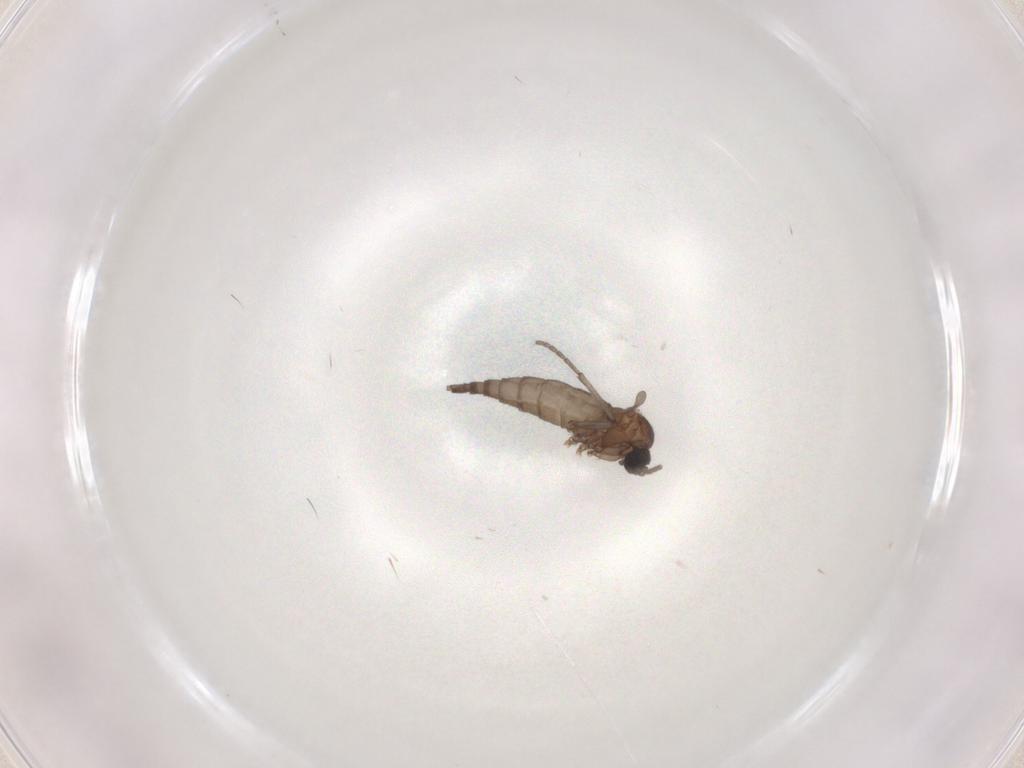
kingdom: Animalia
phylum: Arthropoda
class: Insecta
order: Diptera
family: Sciaridae
